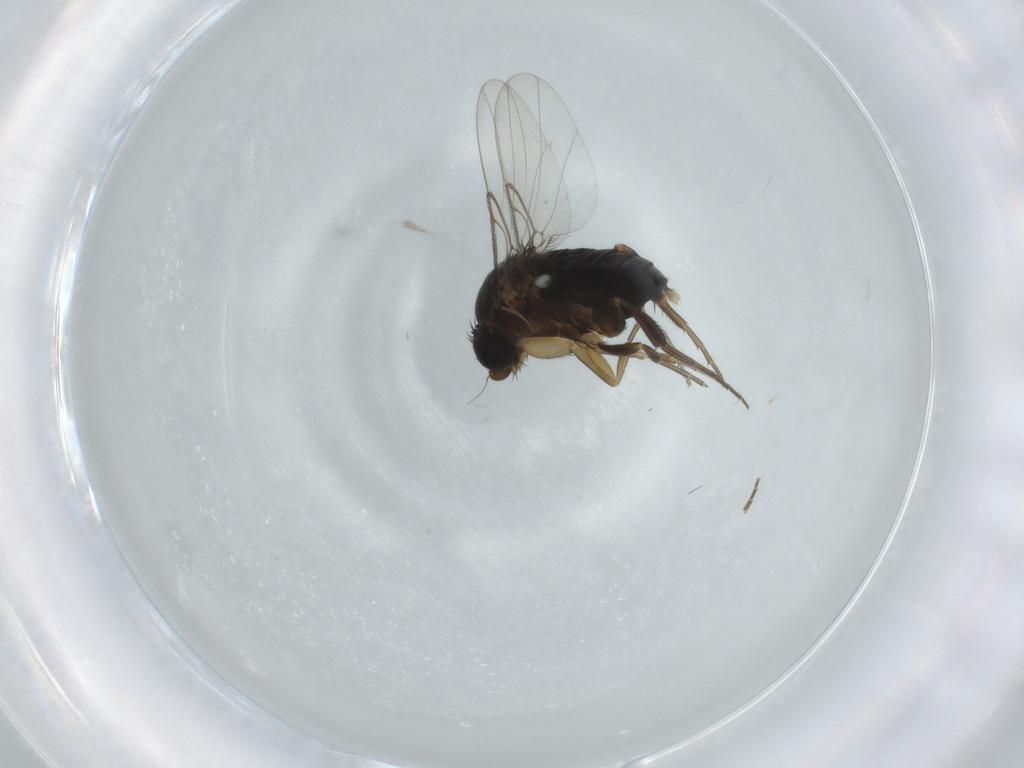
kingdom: Animalia
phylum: Arthropoda
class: Insecta
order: Diptera
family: Phoridae
